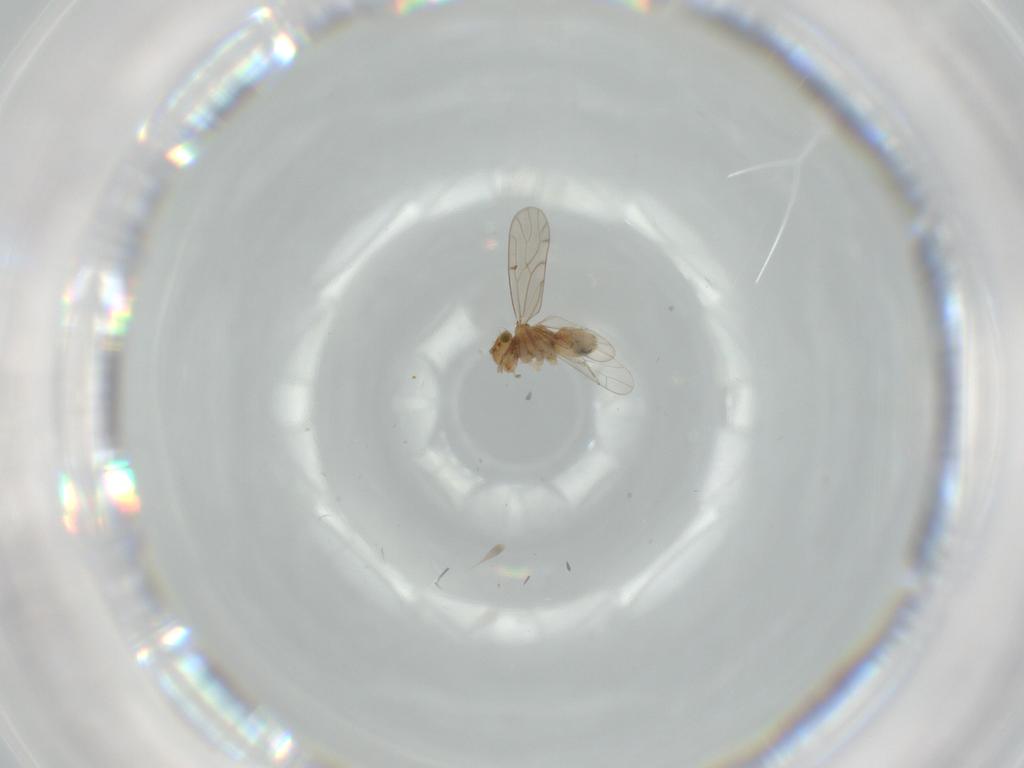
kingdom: Animalia
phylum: Arthropoda
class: Insecta
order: Psocodea
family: Ectopsocidae
